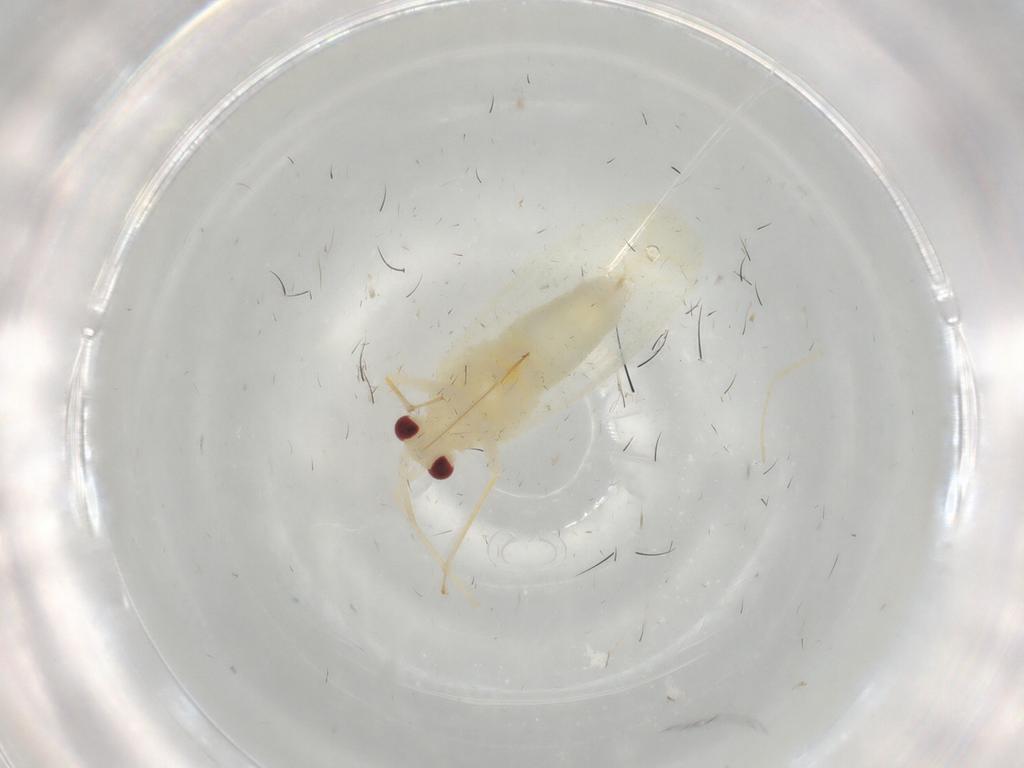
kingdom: Animalia
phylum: Arthropoda
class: Insecta
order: Hemiptera
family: Miridae
